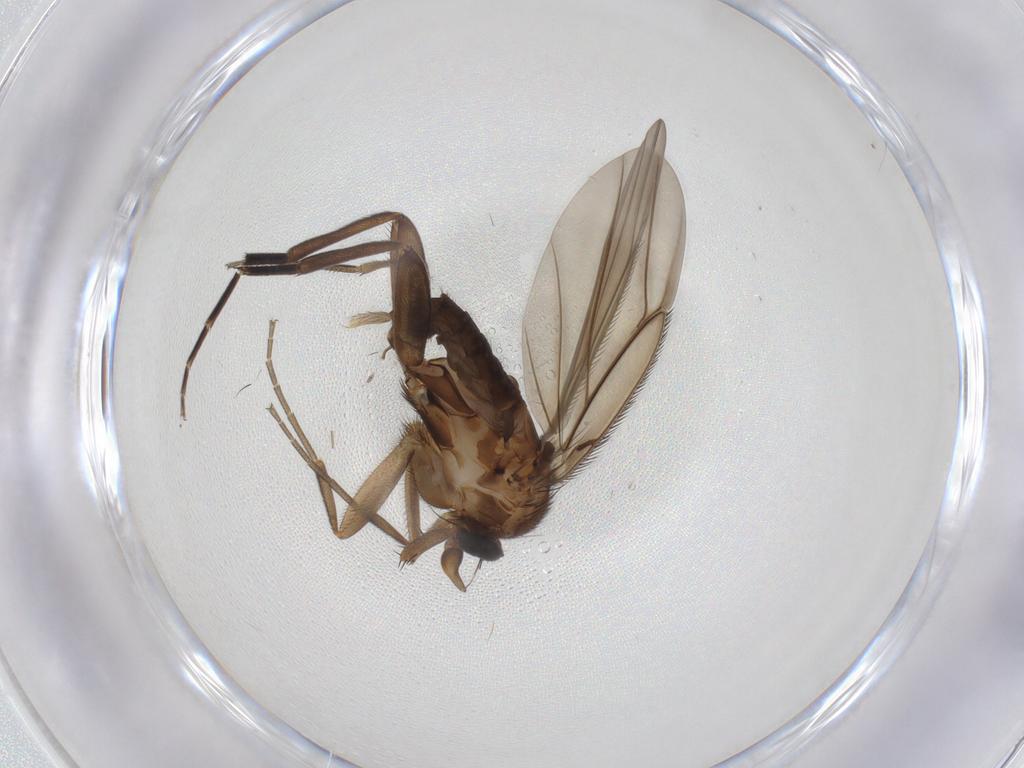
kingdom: Animalia
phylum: Arthropoda
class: Insecta
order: Diptera
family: Phoridae
